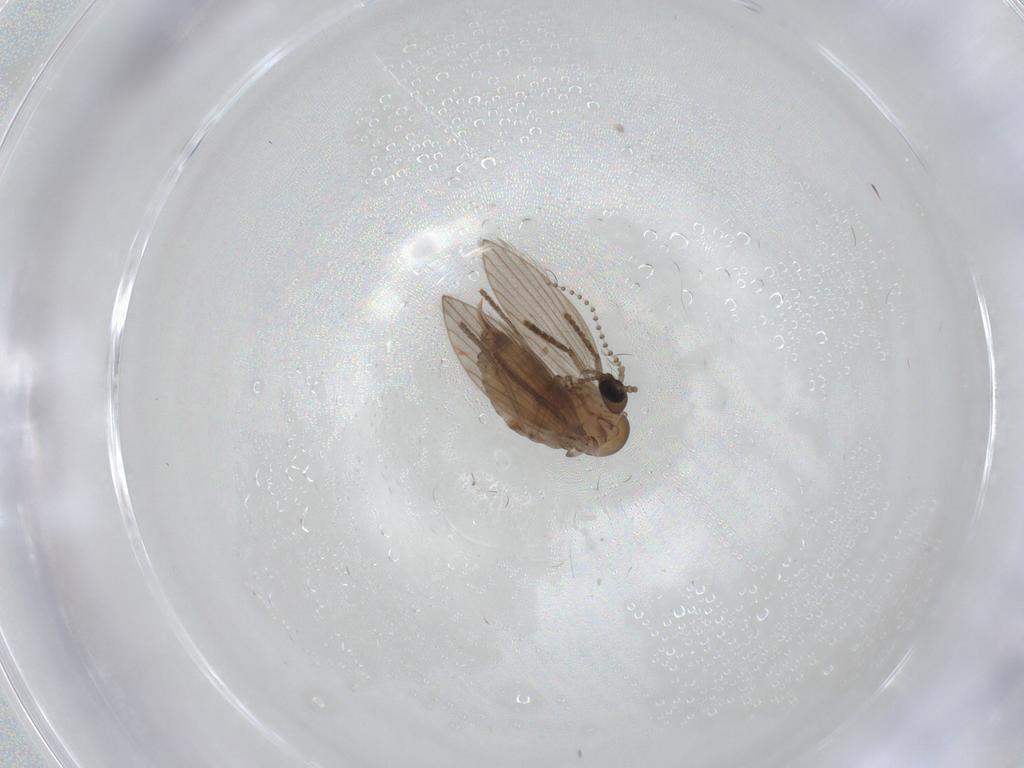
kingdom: Animalia
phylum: Arthropoda
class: Insecta
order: Diptera
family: Psychodidae
